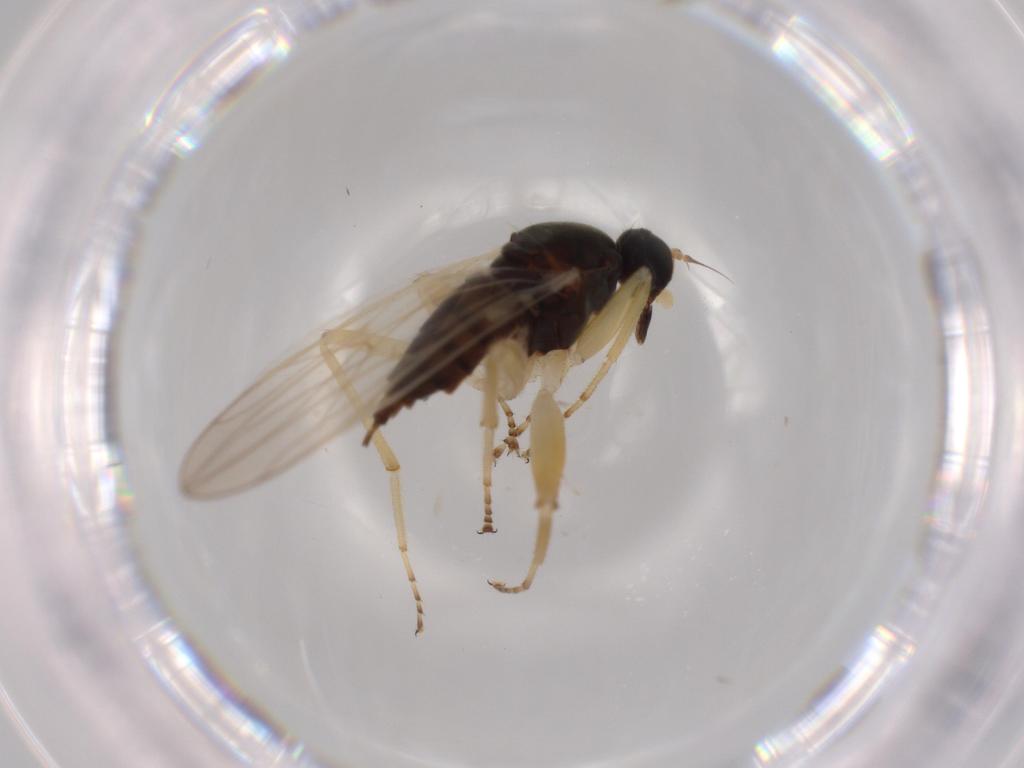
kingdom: Animalia
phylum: Arthropoda
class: Insecta
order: Diptera
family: Hybotidae
